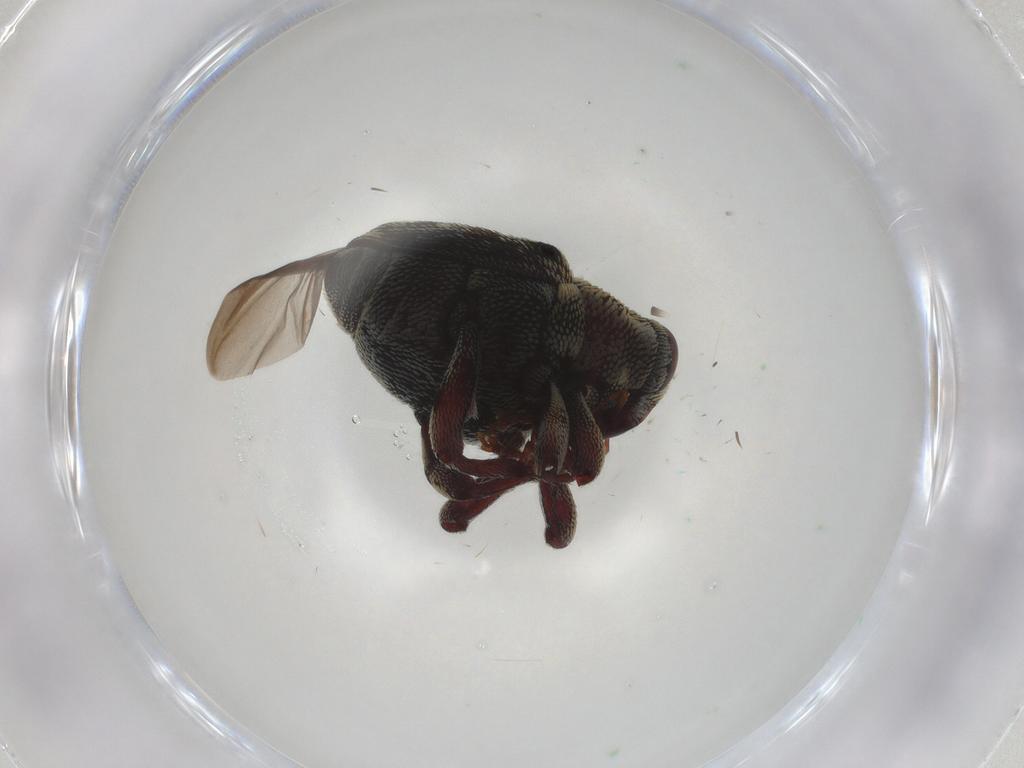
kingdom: Animalia
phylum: Arthropoda
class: Insecta
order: Coleoptera
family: Curculionidae
